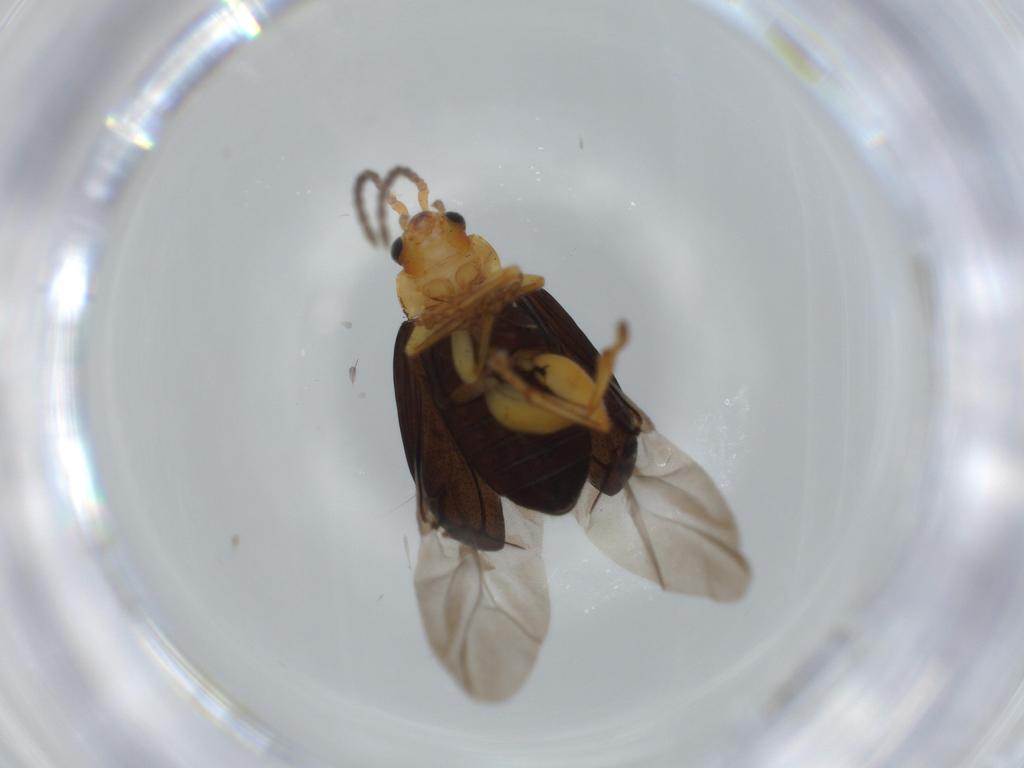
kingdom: Animalia
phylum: Arthropoda
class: Insecta
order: Coleoptera
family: Chrysomelidae
